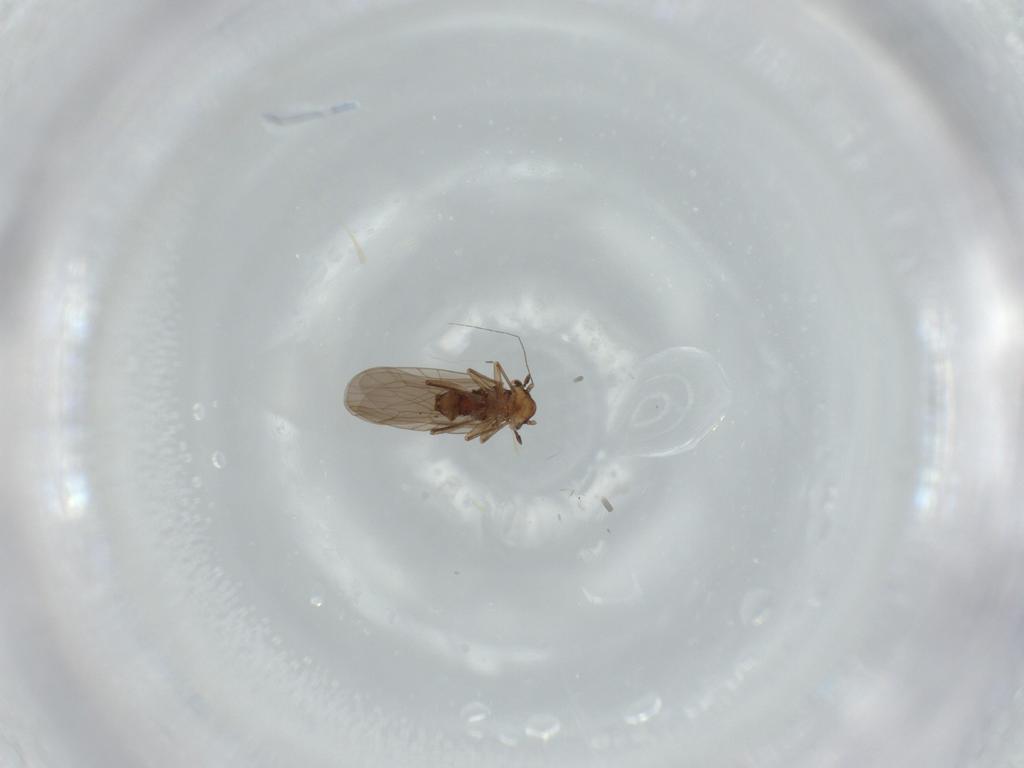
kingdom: Animalia
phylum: Arthropoda
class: Insecta
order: Psocodea
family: Lepidopsocidae
